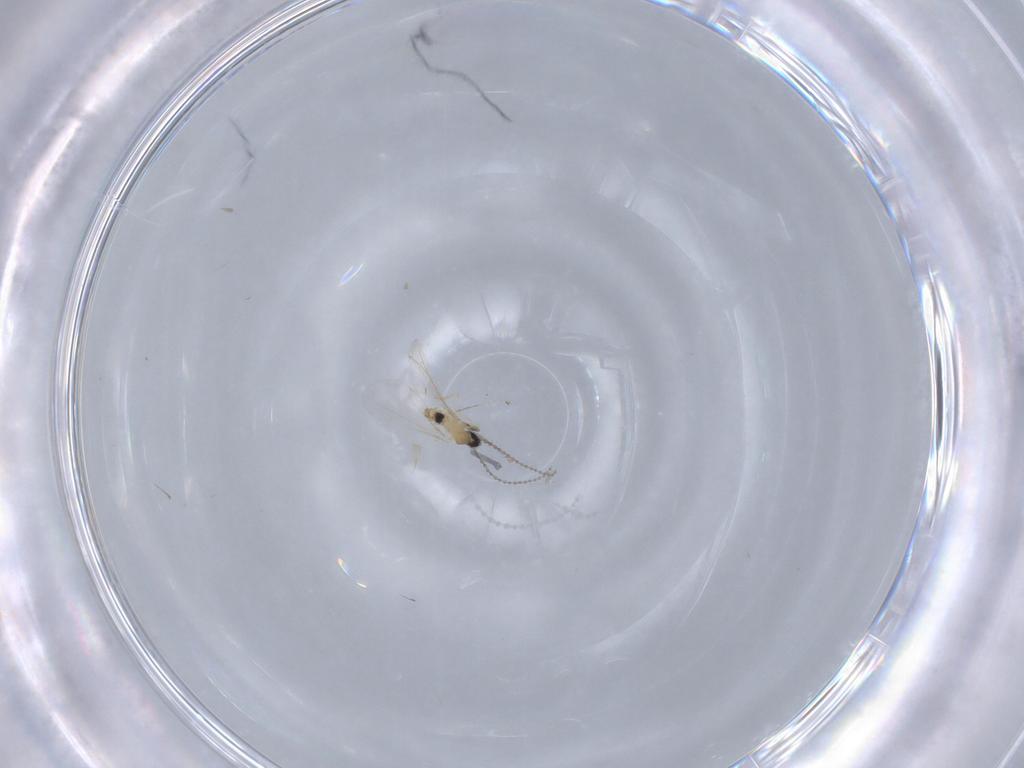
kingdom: Animalia
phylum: Arthropoda
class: Insecta
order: Diptera
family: Cecidomyiidae
